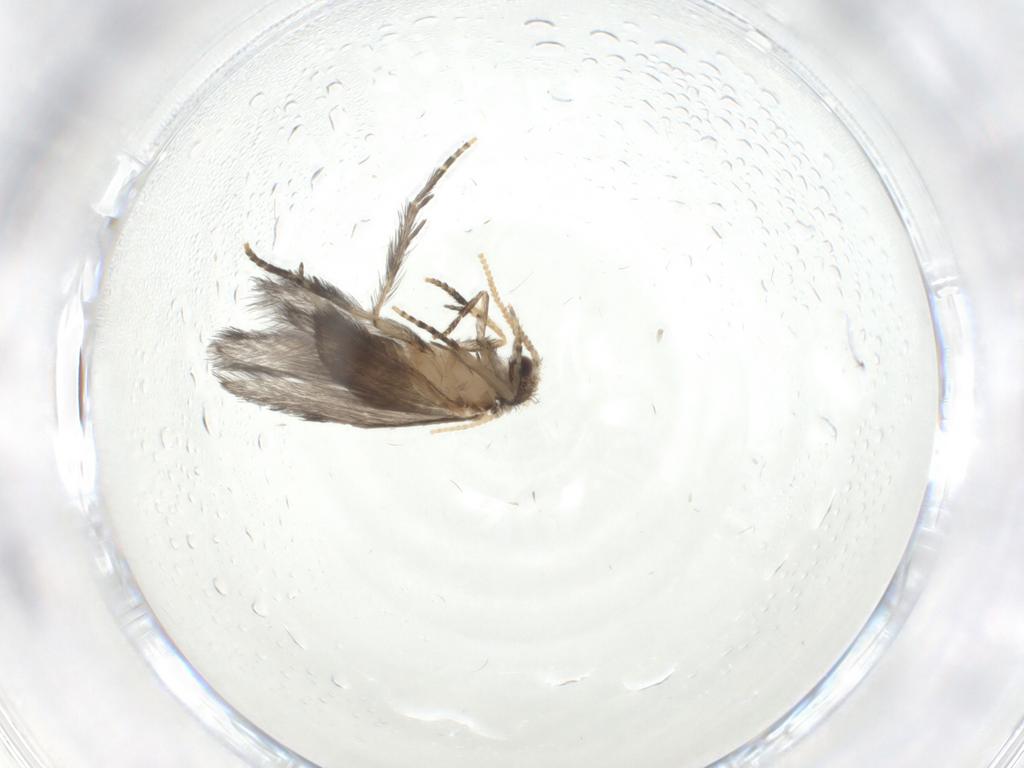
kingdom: Animalia
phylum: Arthropoda
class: Insecta
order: Trichoptera
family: Hydroptilidae
